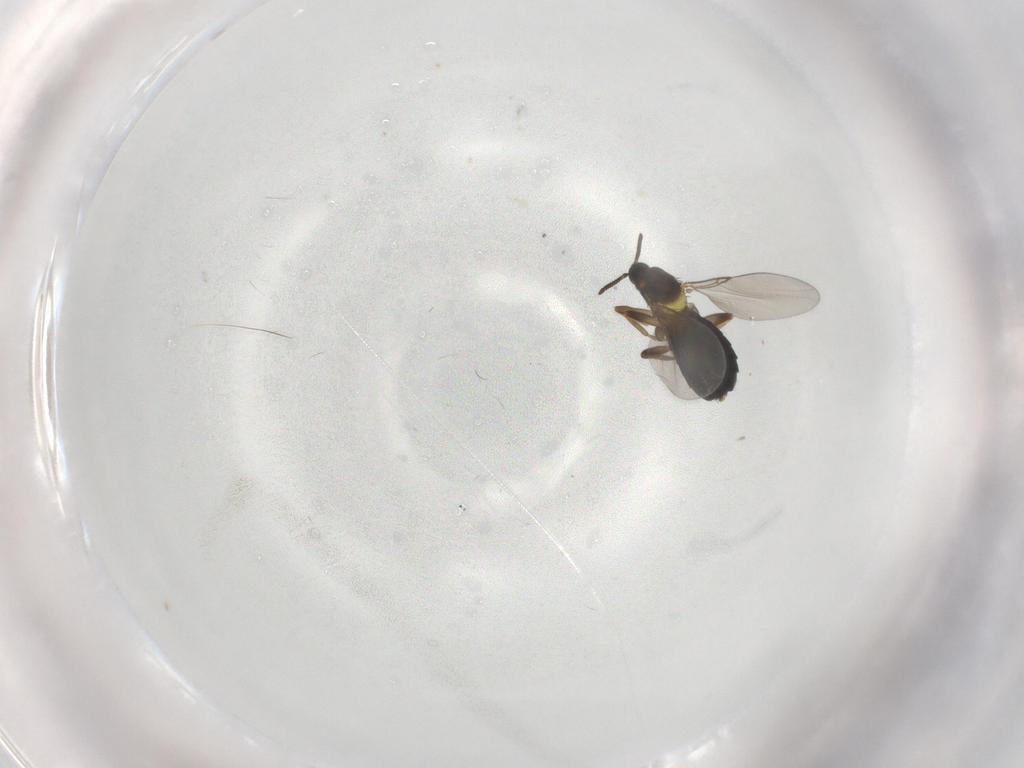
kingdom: Animalia
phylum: Arthropoda
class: Insecta
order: Diptera
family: Scatopsidae
